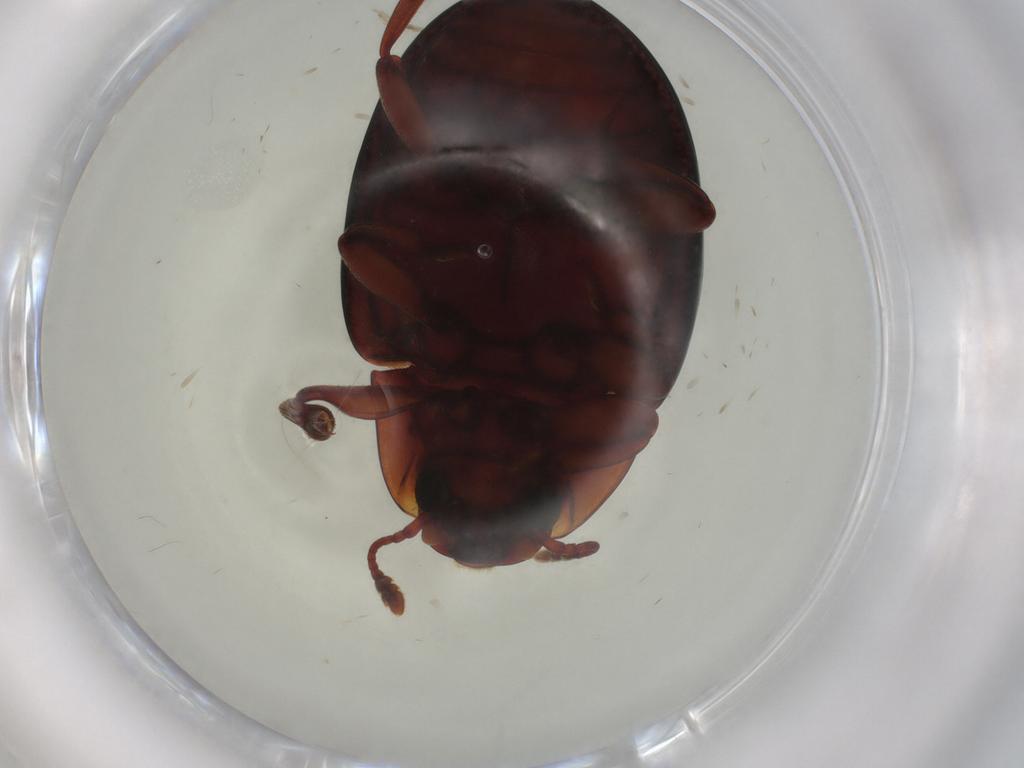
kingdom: Animalia
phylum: Arthropoda
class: Insecta
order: Coleoptera
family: Zopheridae
